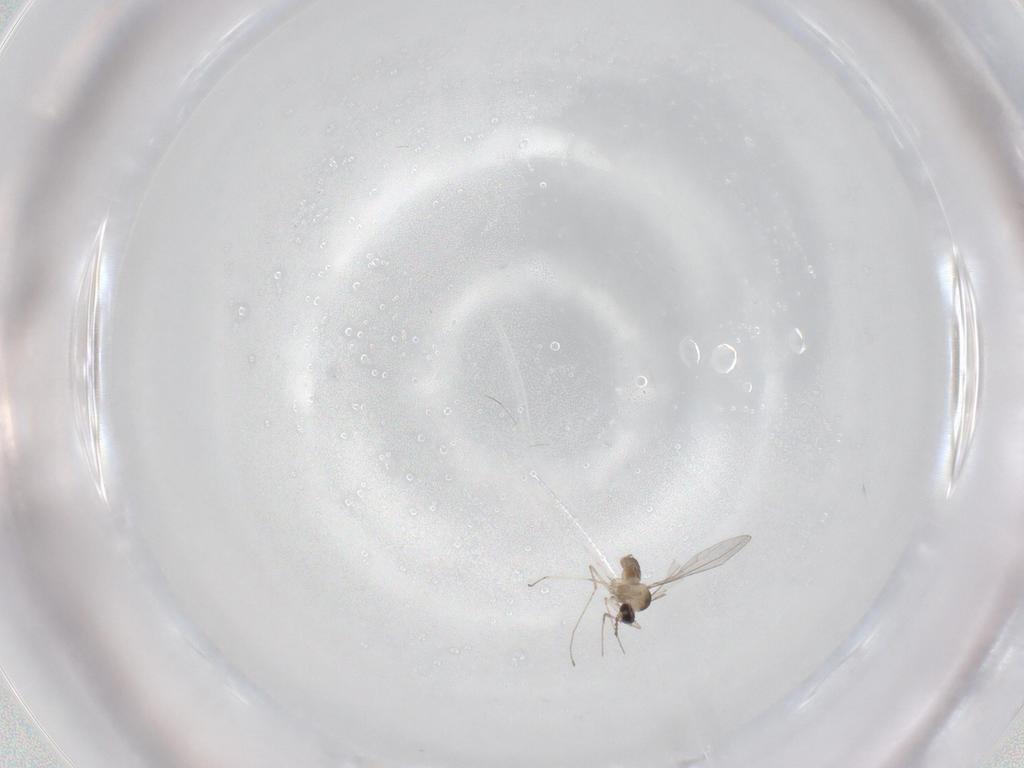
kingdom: Animalia
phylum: Arthropoda
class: Insecta
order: Diptera
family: Cecidomyiidae
